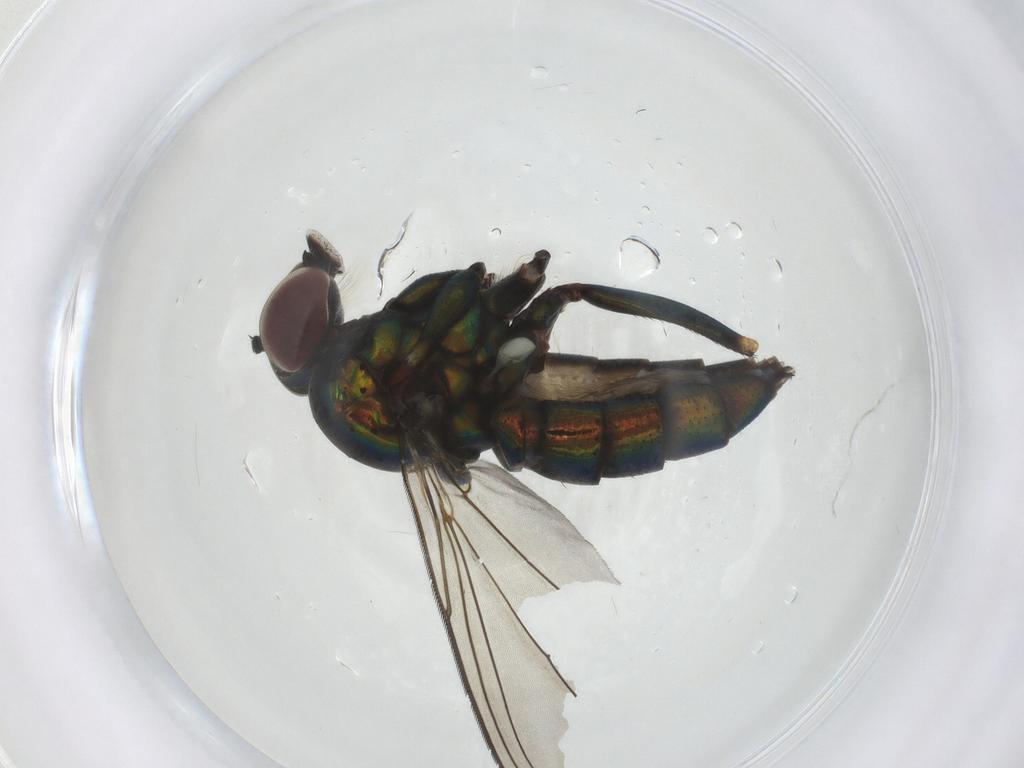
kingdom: Animalia
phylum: Arthropoda
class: Insecta
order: Diptera
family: Dolichopodidae
